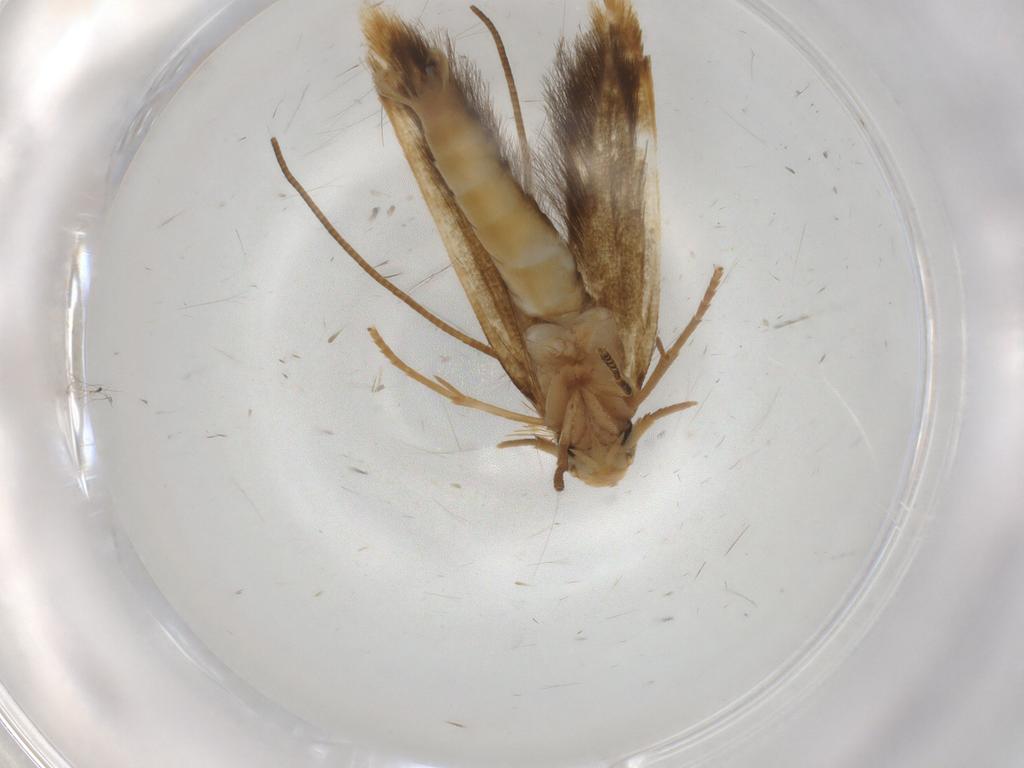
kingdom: Animalia
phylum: Arthropoda
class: Insecta
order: Lepidoptera
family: Tineidae
